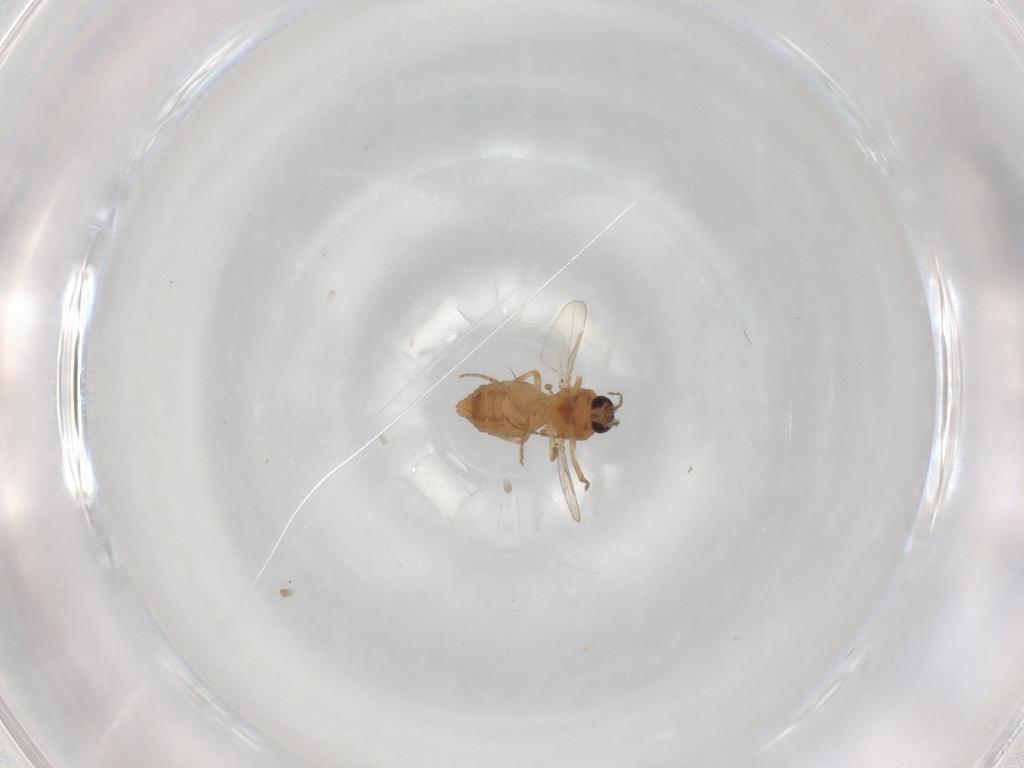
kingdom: Animalia
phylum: Arthropoda
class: Insecta
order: Diptera
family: Ceratopogonidae
